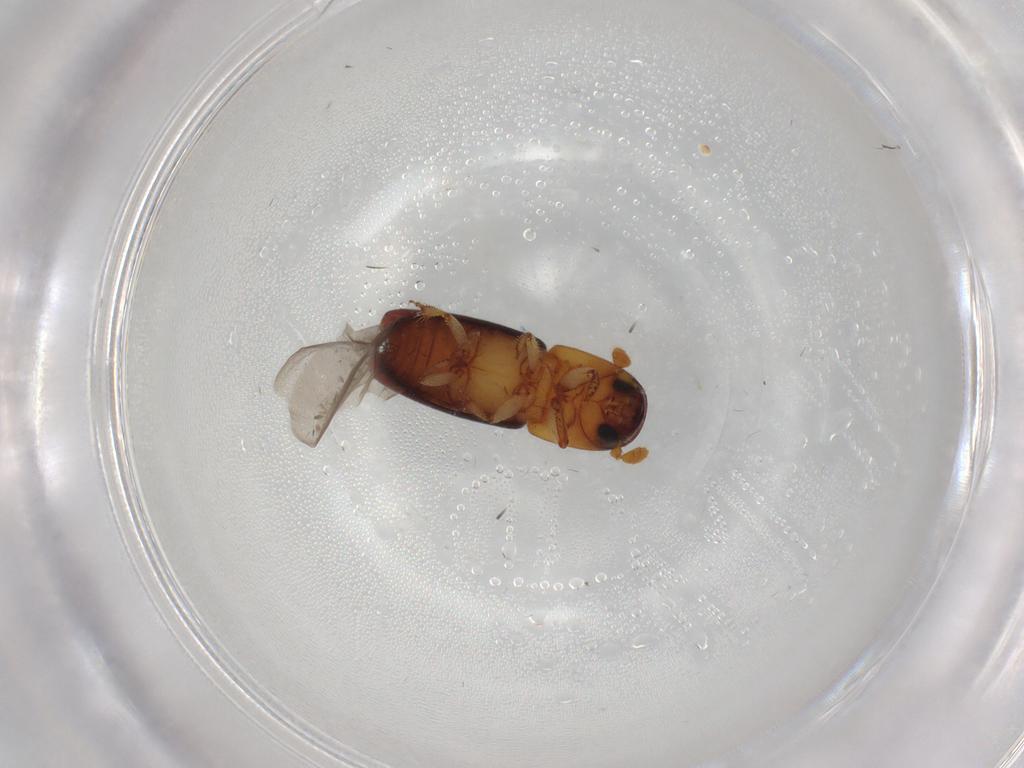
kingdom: Animalia
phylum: Arthropoda
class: Insecta
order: Coleoptera
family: Curculionidae
